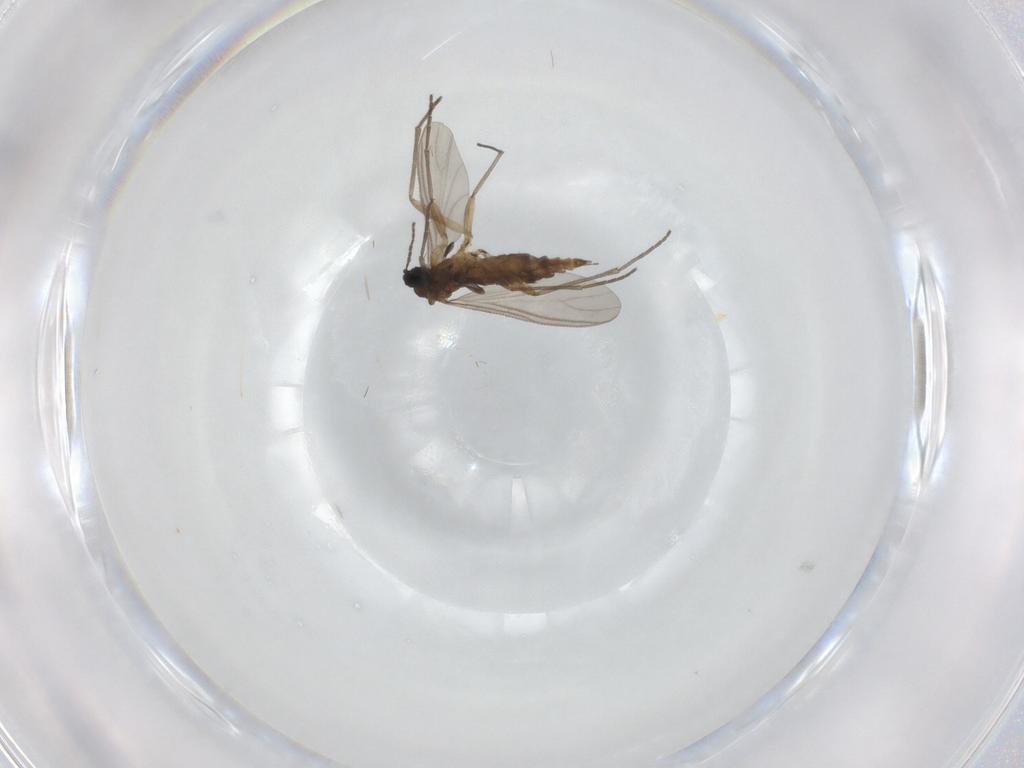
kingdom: Animalia
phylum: Arthropoda
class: Insecta
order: Diptera
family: Sciaridae
